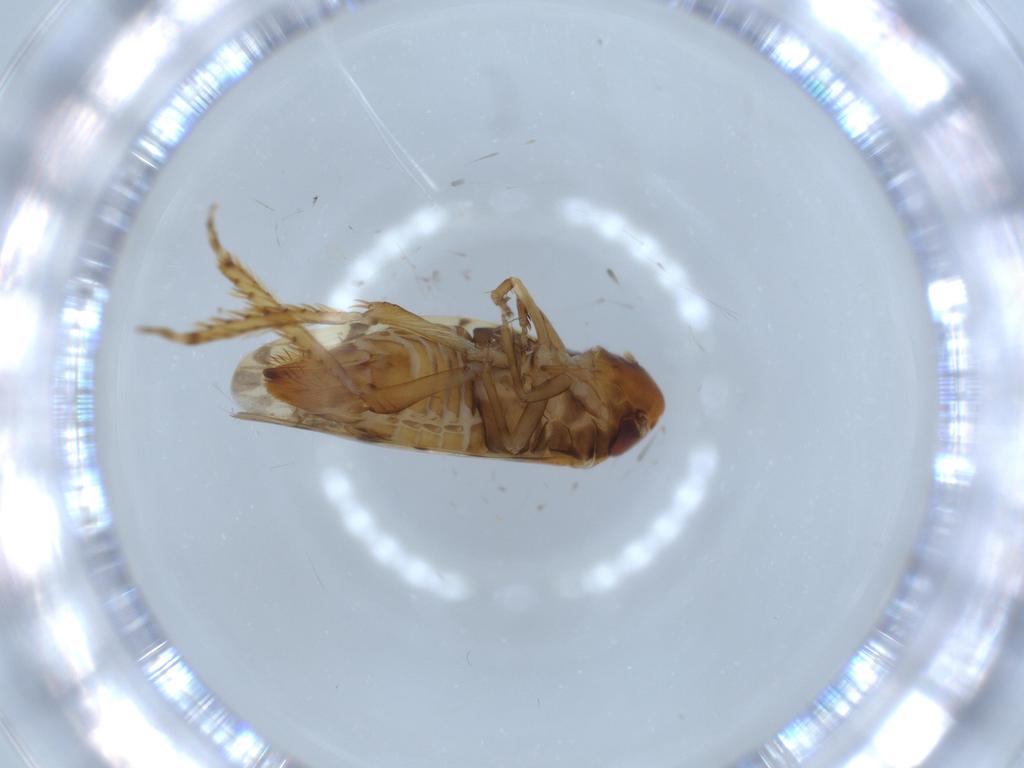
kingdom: Animalia
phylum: Arthropoda
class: Insecta
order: Hemiptera
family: Cicadellidae
